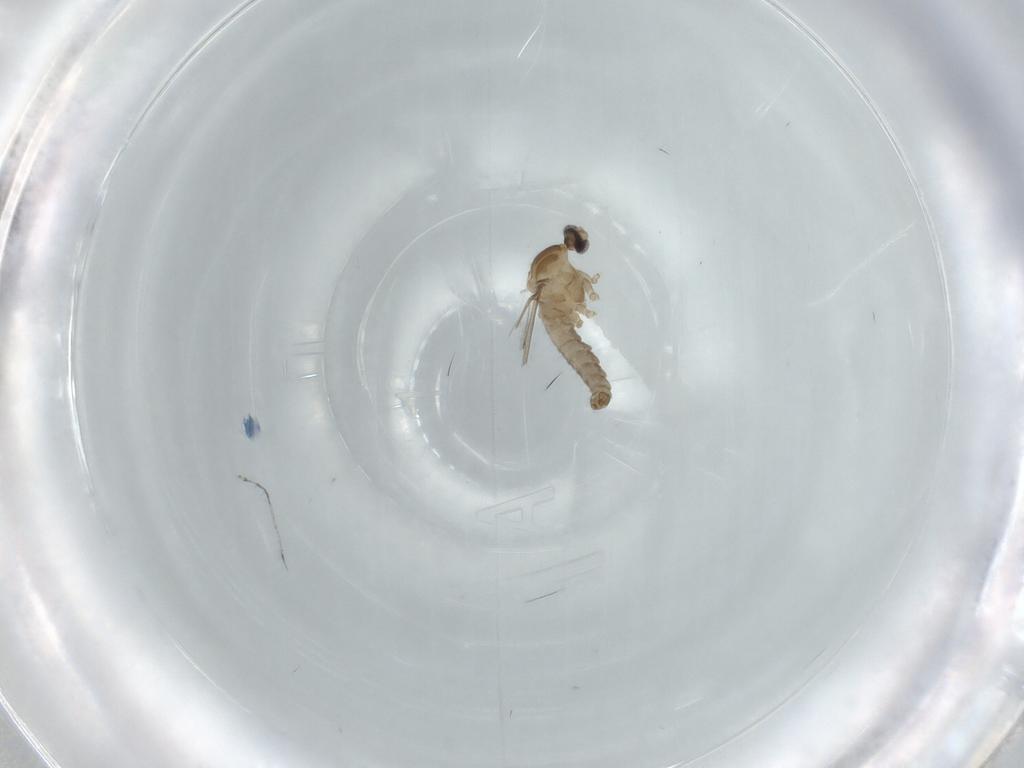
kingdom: Animalia
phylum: Arthropoda
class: Insecta
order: Diptera
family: Cecidomyiidae
